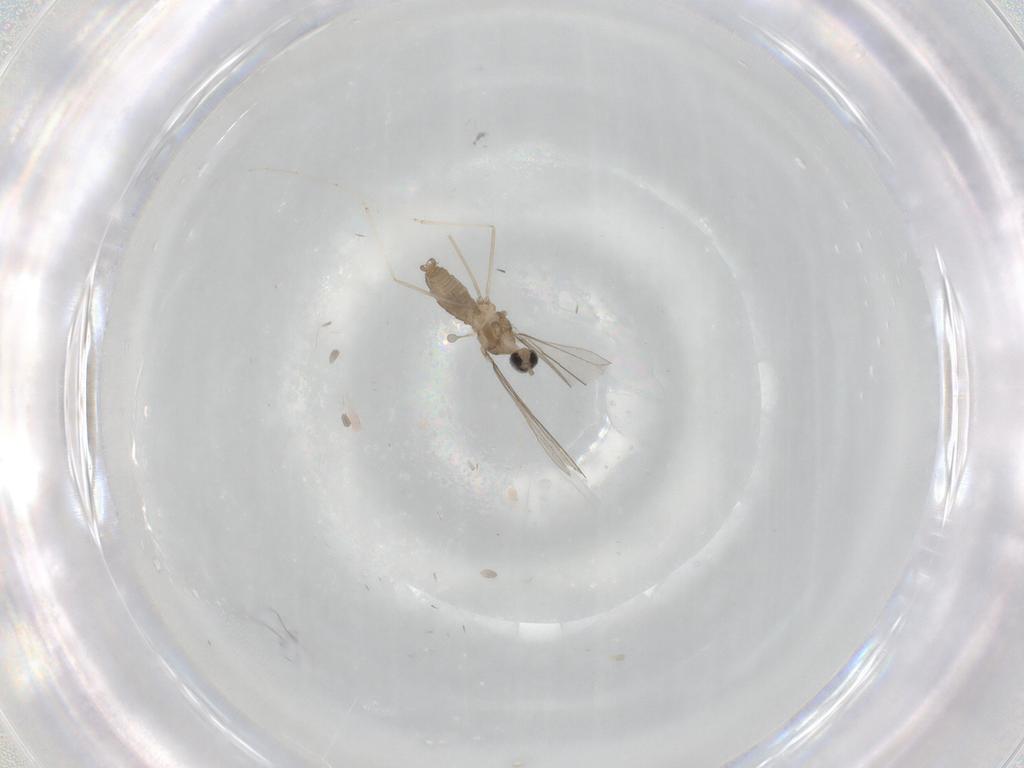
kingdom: Animalia
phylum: Arthropoda
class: Insecta
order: Diptera
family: Cecidomyiidae
